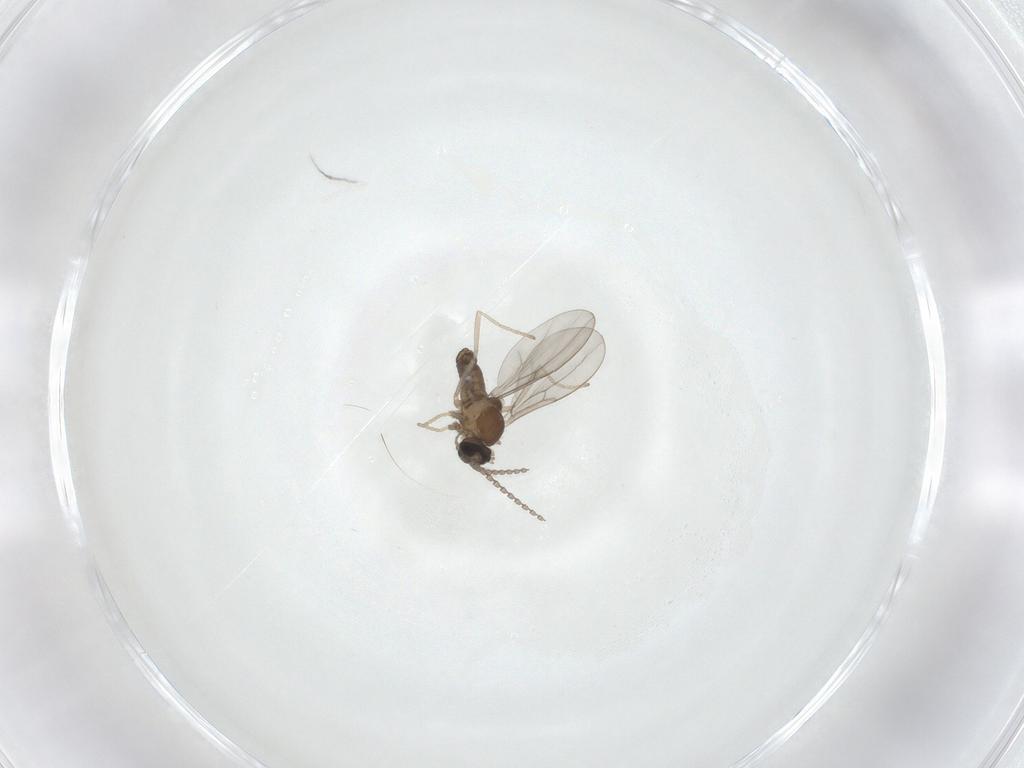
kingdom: Animalia
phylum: Arthropoda
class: Insecta
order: Diptera
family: Cecidomyiidae
